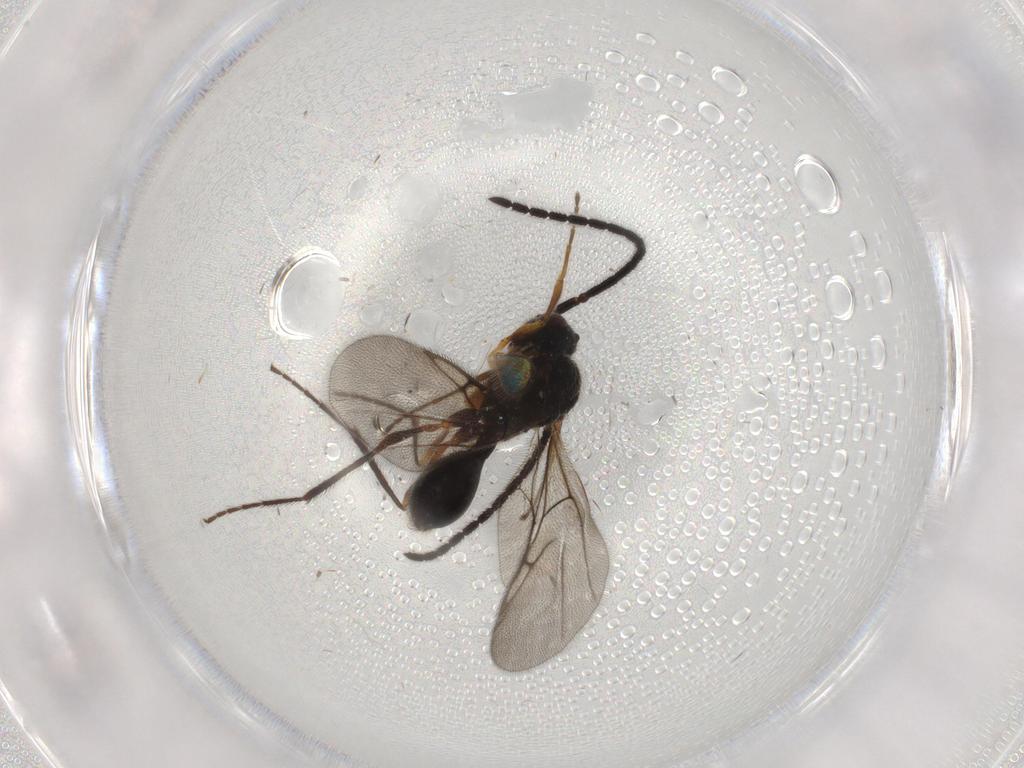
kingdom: Animalia
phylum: Arthropoda
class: Insecta
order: Hymenoptera
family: Diapriidae
